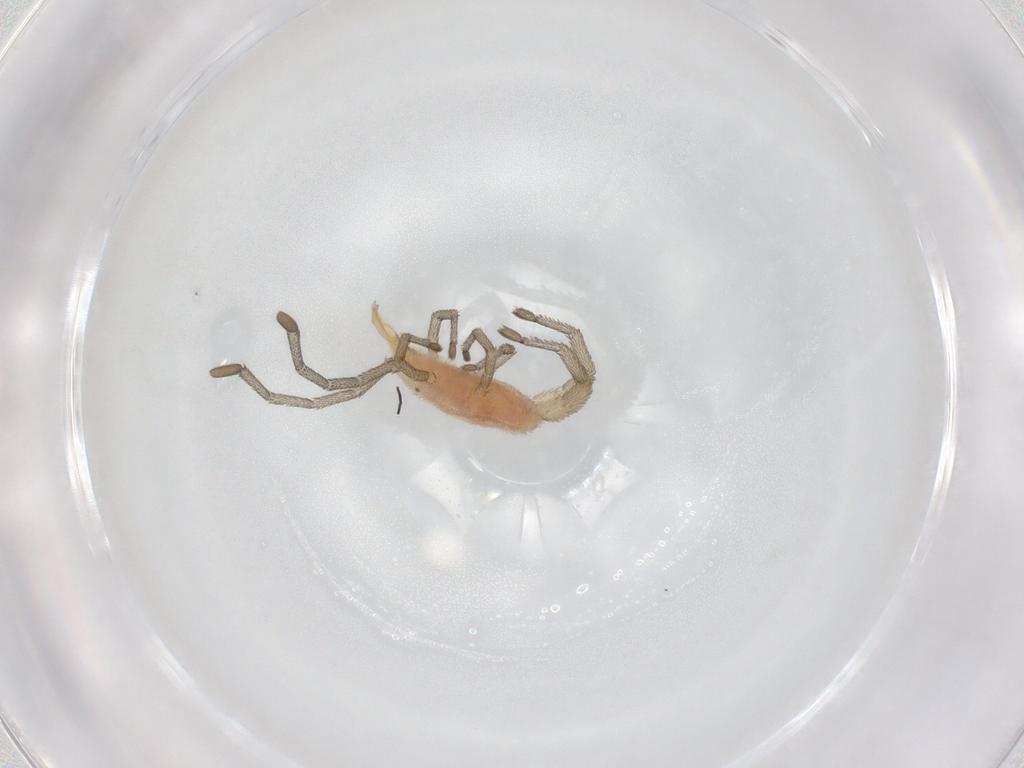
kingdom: Animalia
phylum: Arthropoda
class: Arachnida
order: Trombidiformes
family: Smarididae
